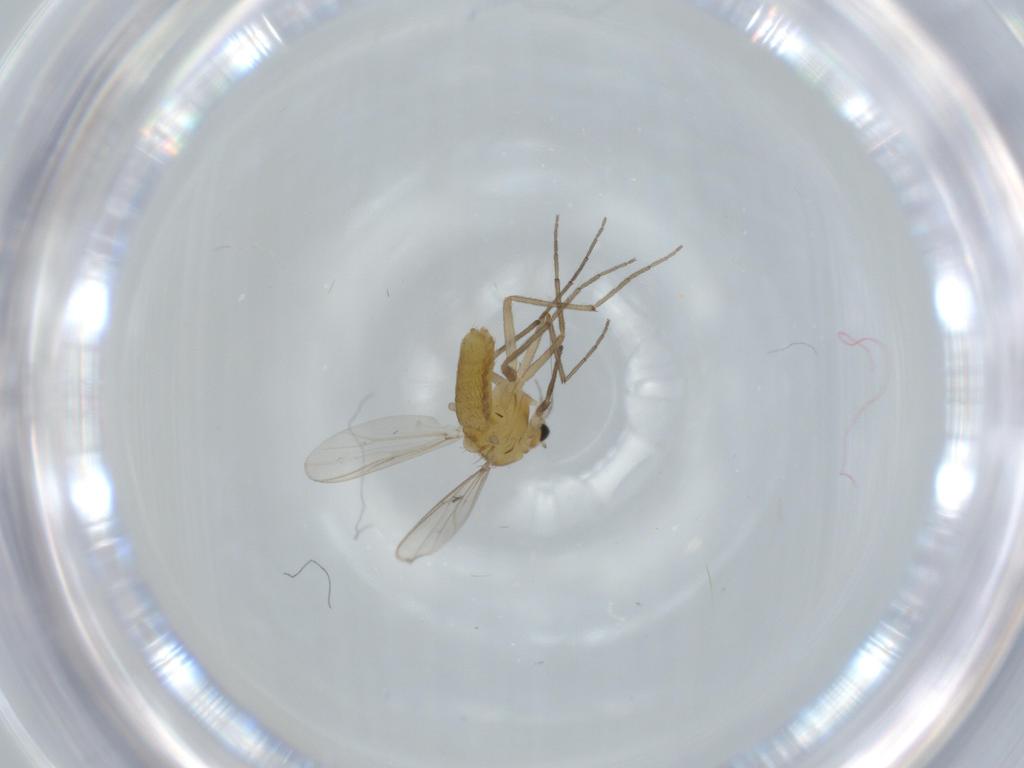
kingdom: Animalia
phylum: Arthropoda
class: Insecta
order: Diptera
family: Chironomidae
